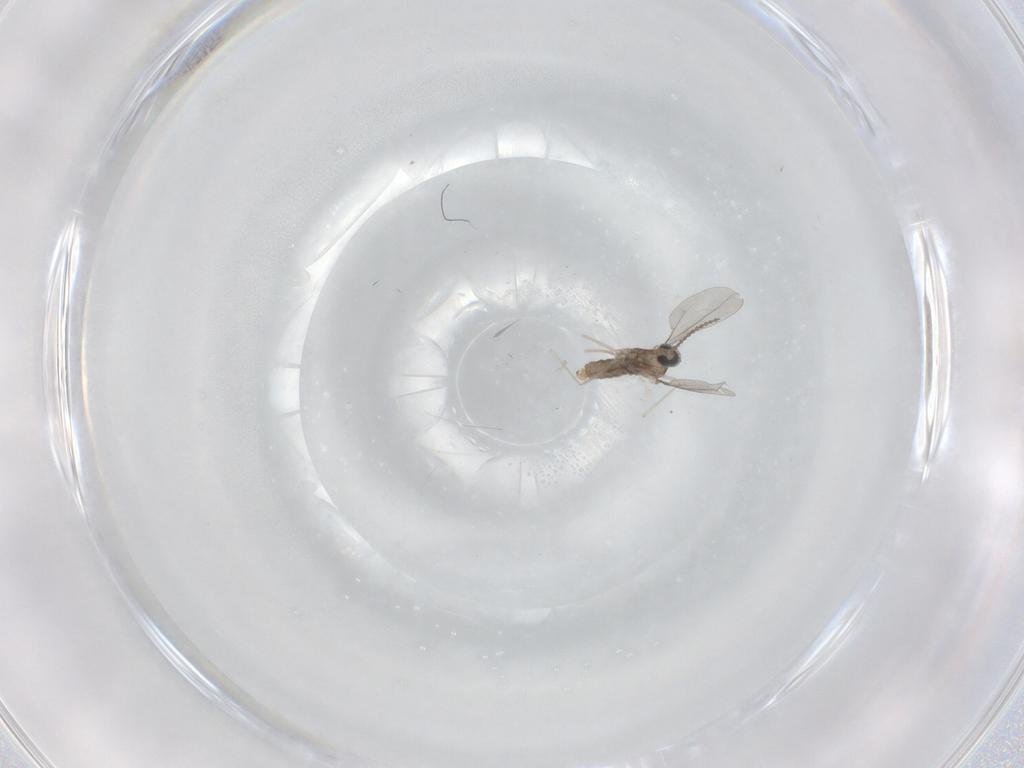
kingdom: Animalia
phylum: Arthropoda
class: Insecta
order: Diptera
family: Cecidomyiidae
